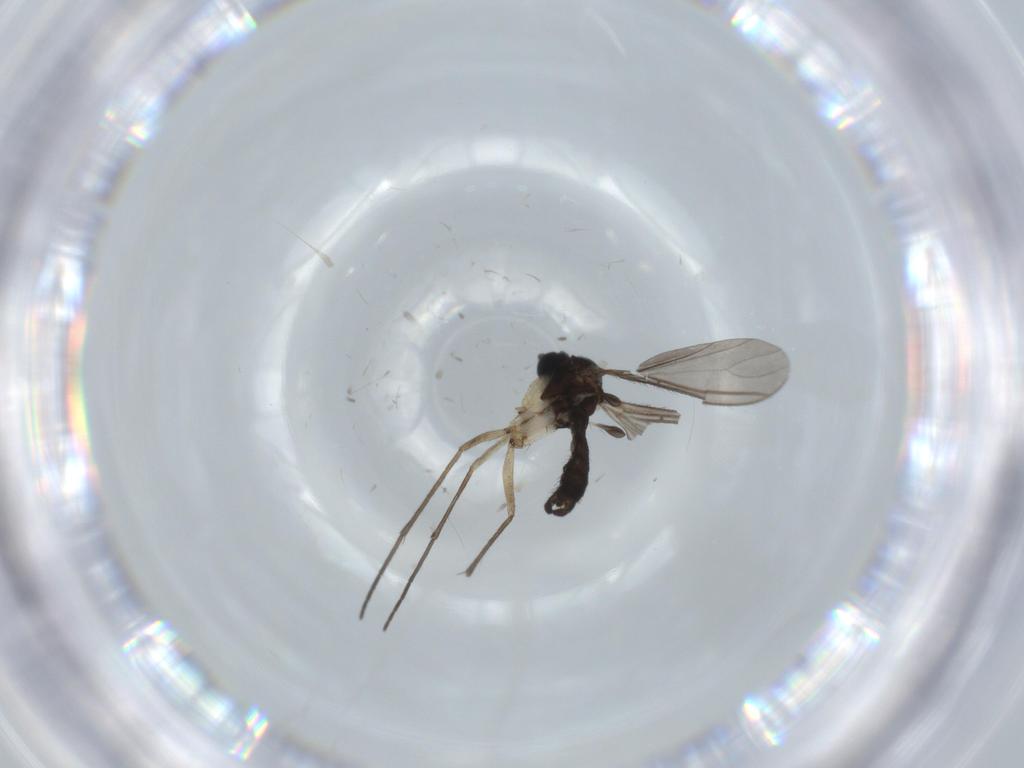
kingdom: Animalia
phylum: Arthropoda
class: Insecta
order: Diptera
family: Sciaridae
